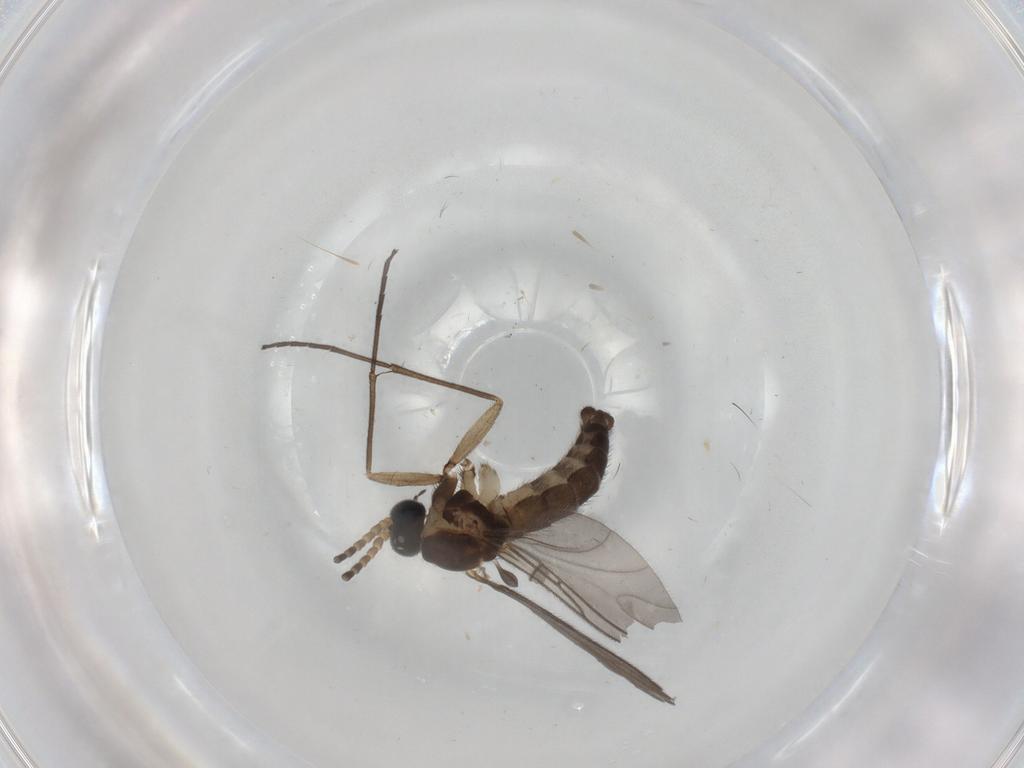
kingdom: Animalia
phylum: Arthropoda
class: Insecta
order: Diptera
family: Sciaridae
